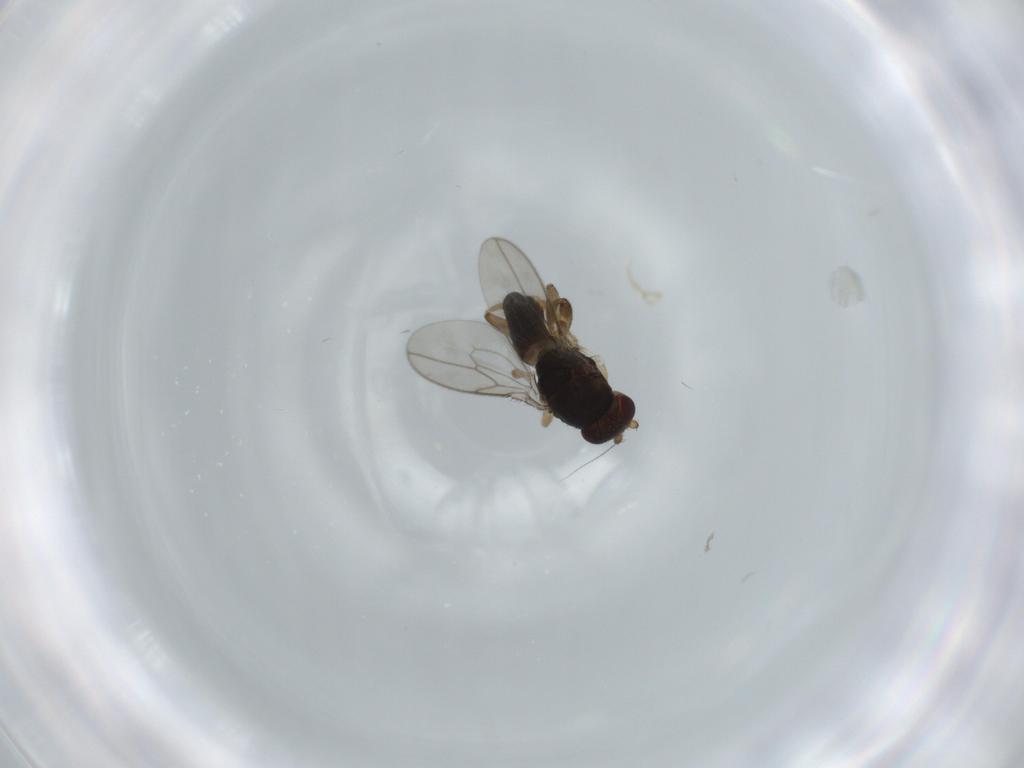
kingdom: Animalia
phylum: Arthropoda
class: Insecta
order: Diptera
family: Sphaeroceridae
